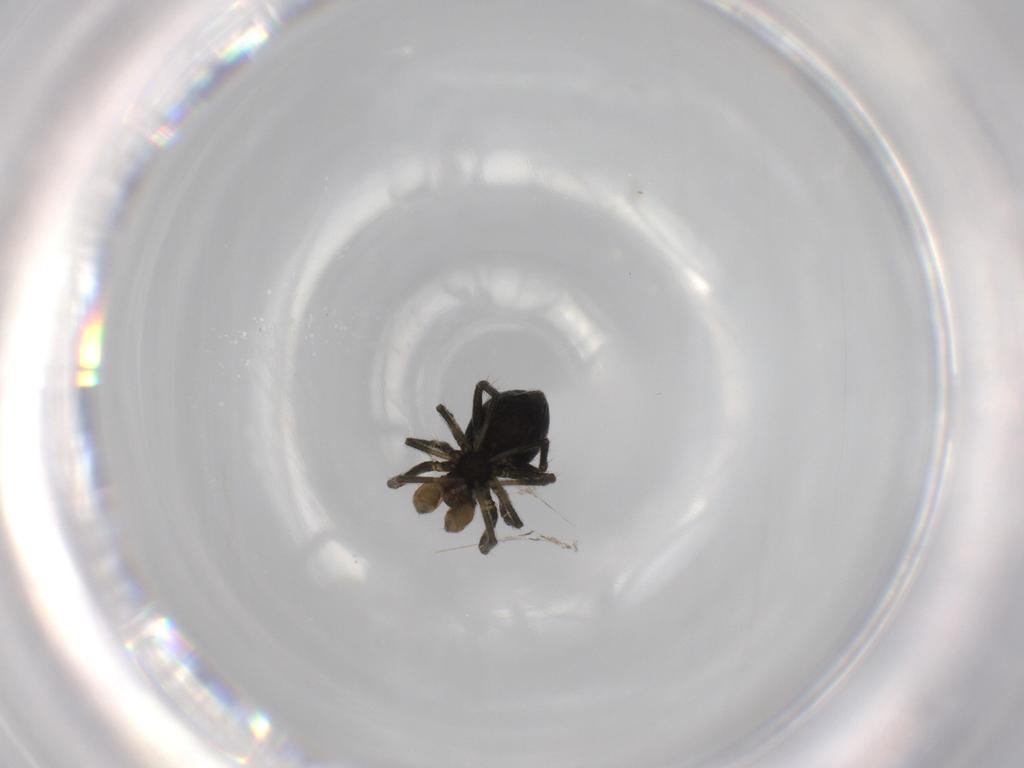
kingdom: Animalia
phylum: Arthropoda
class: Arachnida
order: Araneae
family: Linyphiidae
